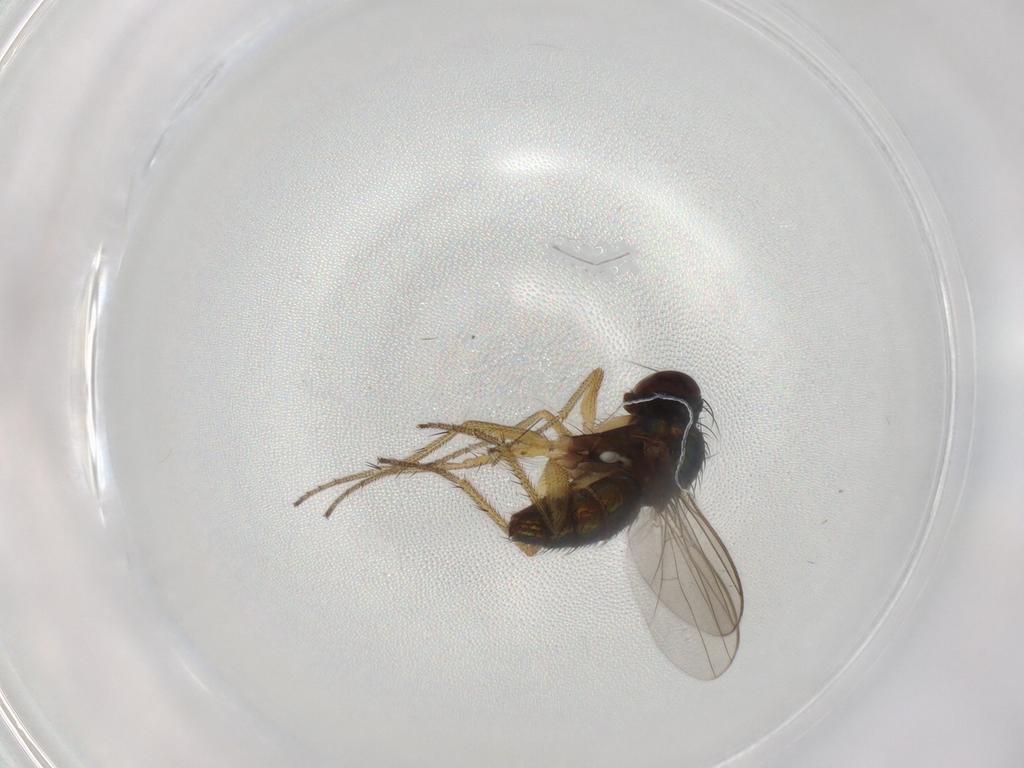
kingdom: Animalia
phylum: Arthropoda
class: Insecta
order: Diptera
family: Dolichopodidae
